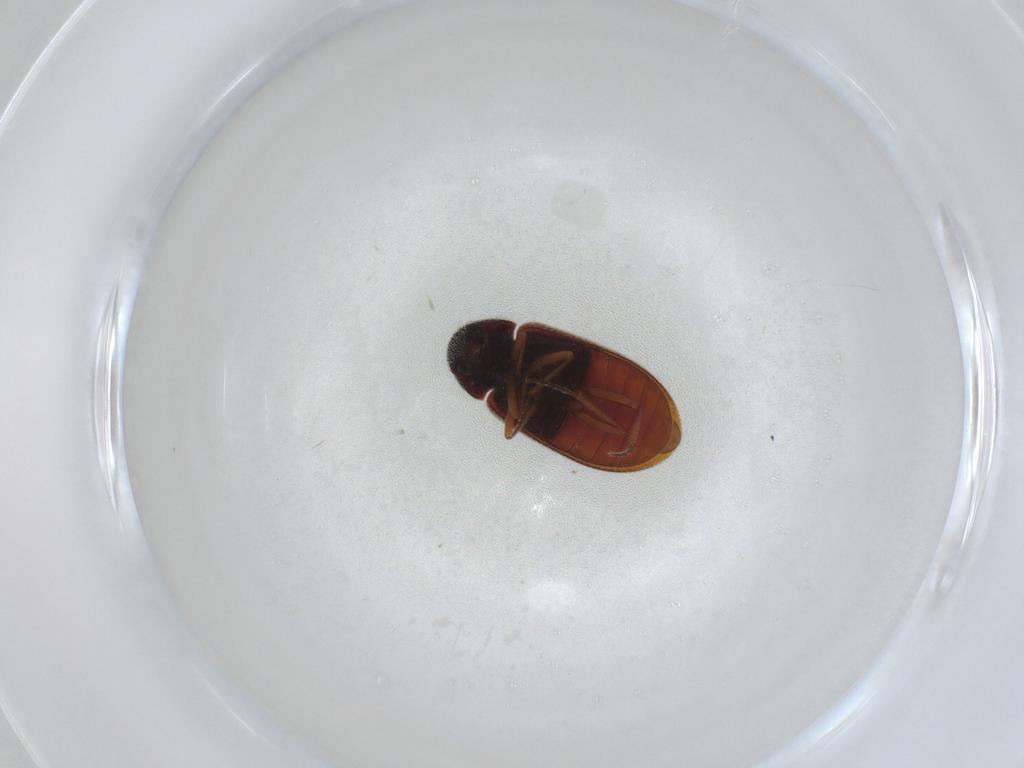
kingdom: Animalia
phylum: Arthropoda
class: Insecta
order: Coleoptera
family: Rhadalidae
